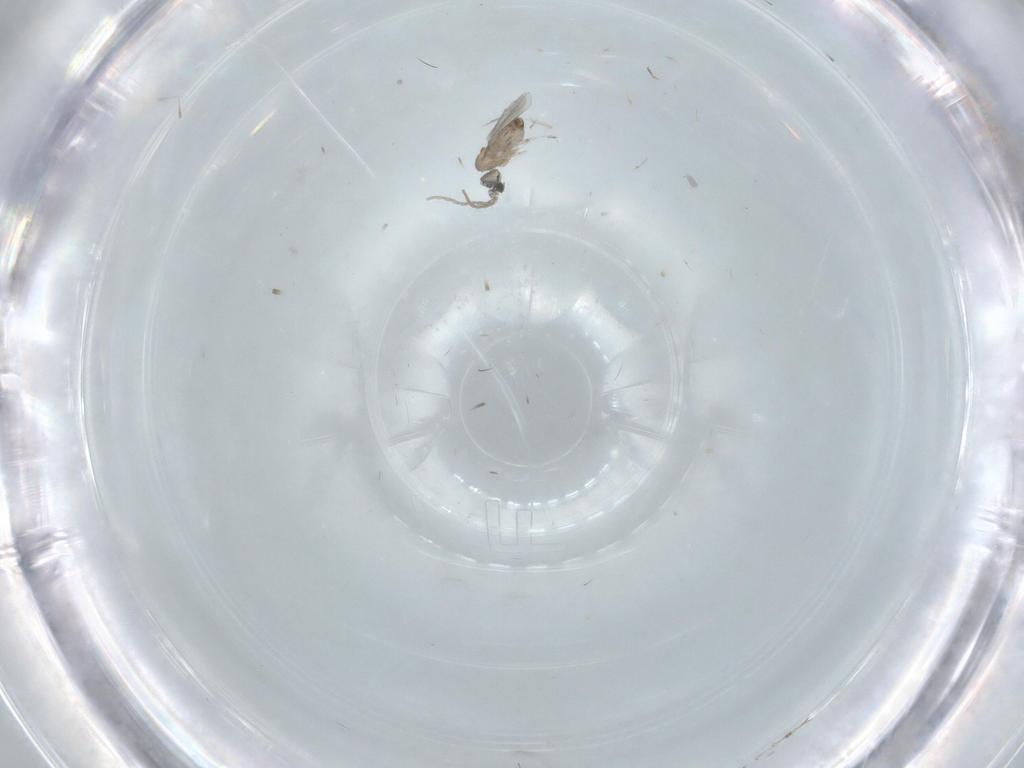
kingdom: Animalia
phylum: Arthropoda
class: Insecta
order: Diptera
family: Cecidomyiidae
